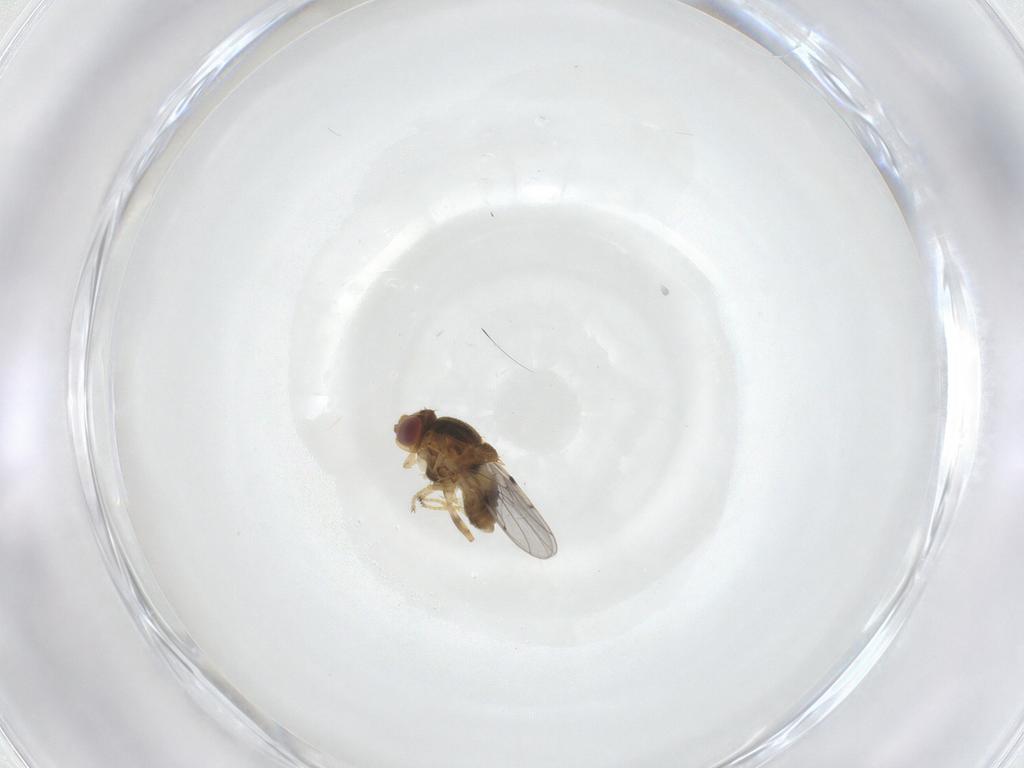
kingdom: Animalia
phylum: Arthropoda
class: Insecta
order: Diptera
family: Chloropidae
